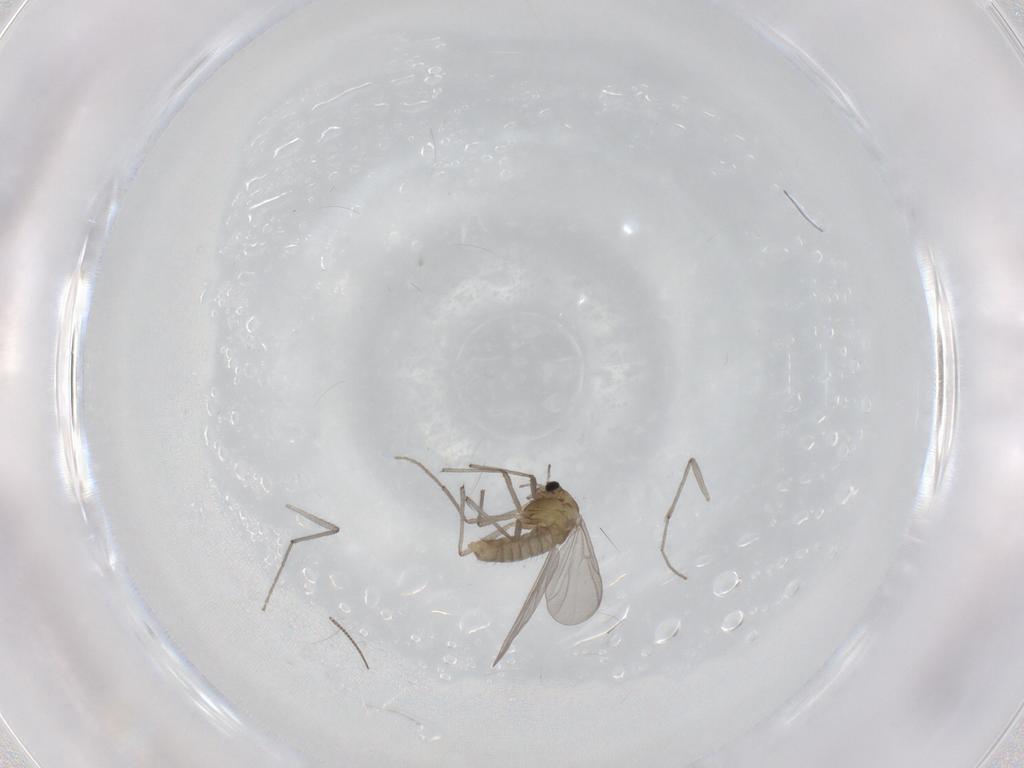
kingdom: Animalia
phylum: Arthropoda
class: Insecta
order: Diptera
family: Chironomidae
